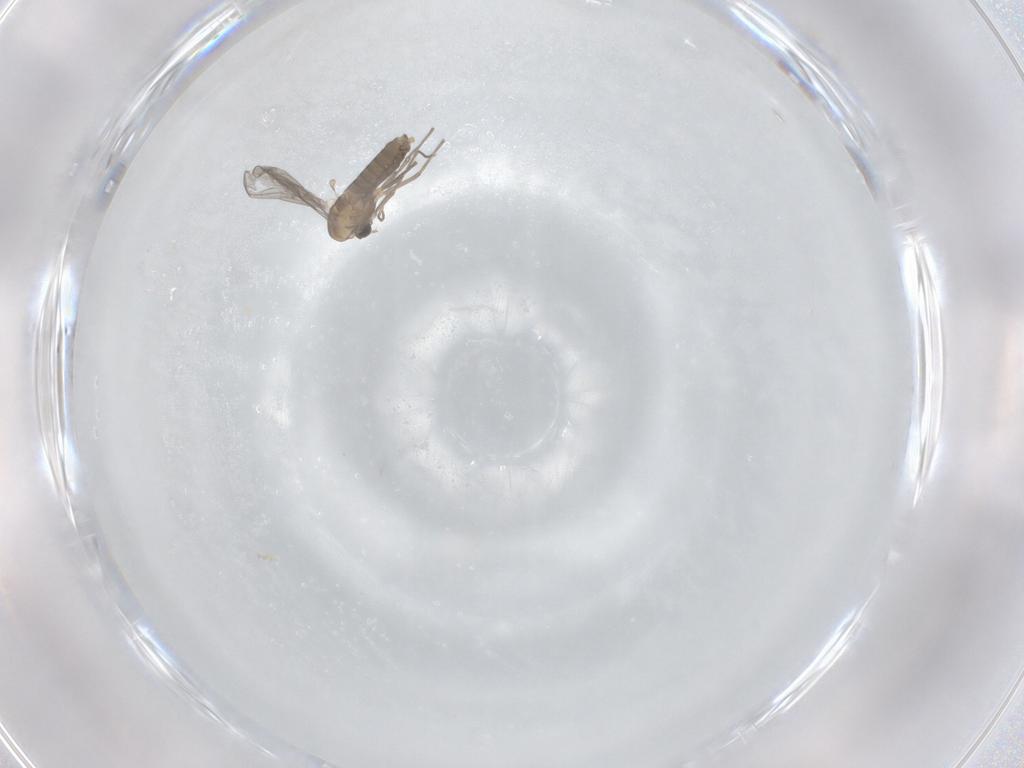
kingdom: Animalia
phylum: Arthropoda
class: Insecta
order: Diptera
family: Chironomidae
